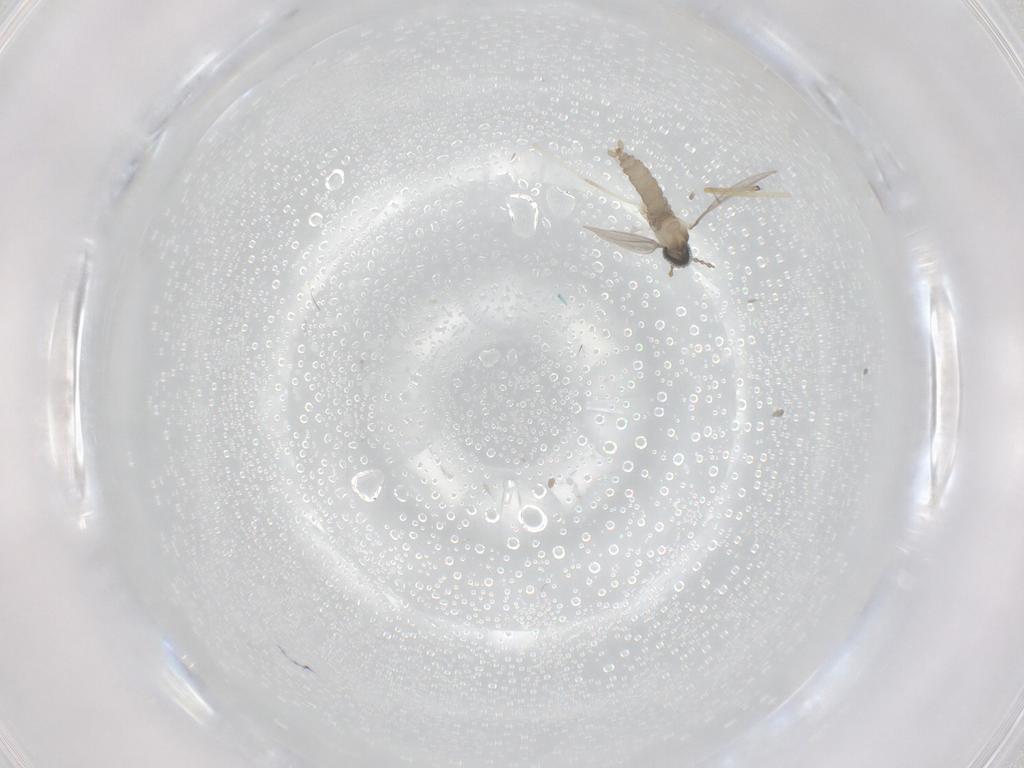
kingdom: Animalia
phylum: Arthropoda
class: Insecta
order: Diptera
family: Chironomidae
